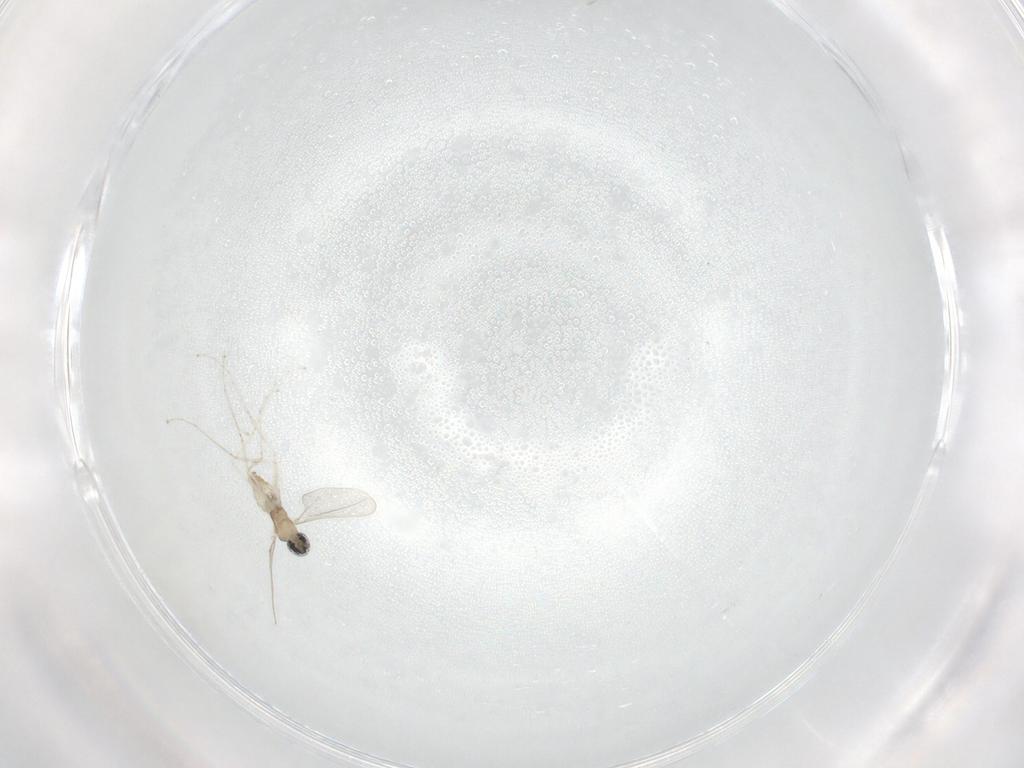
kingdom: Animalia
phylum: Arthropoda
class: Insecta
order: Diptera
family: Cecidomyiidae
